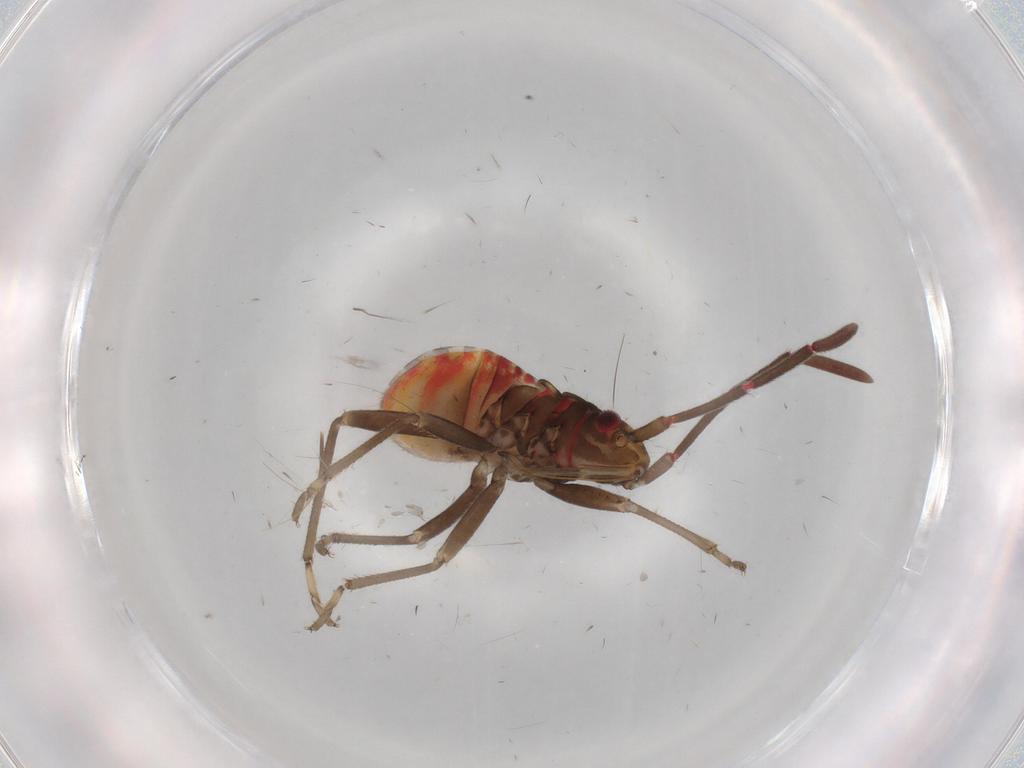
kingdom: Animalia
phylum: Arthropoda
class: Insecta
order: Hemiptera
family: Rhyparochromidae
